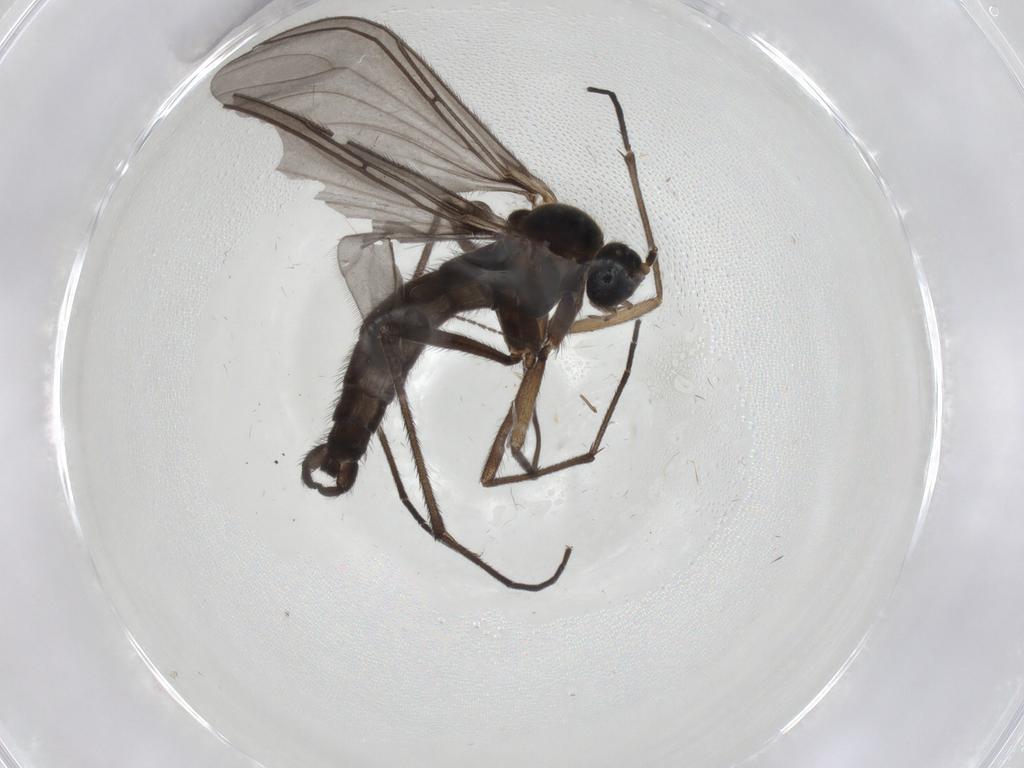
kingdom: Animalia
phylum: Arthropoda
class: Insecta
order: Diptera
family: Sciaridae
